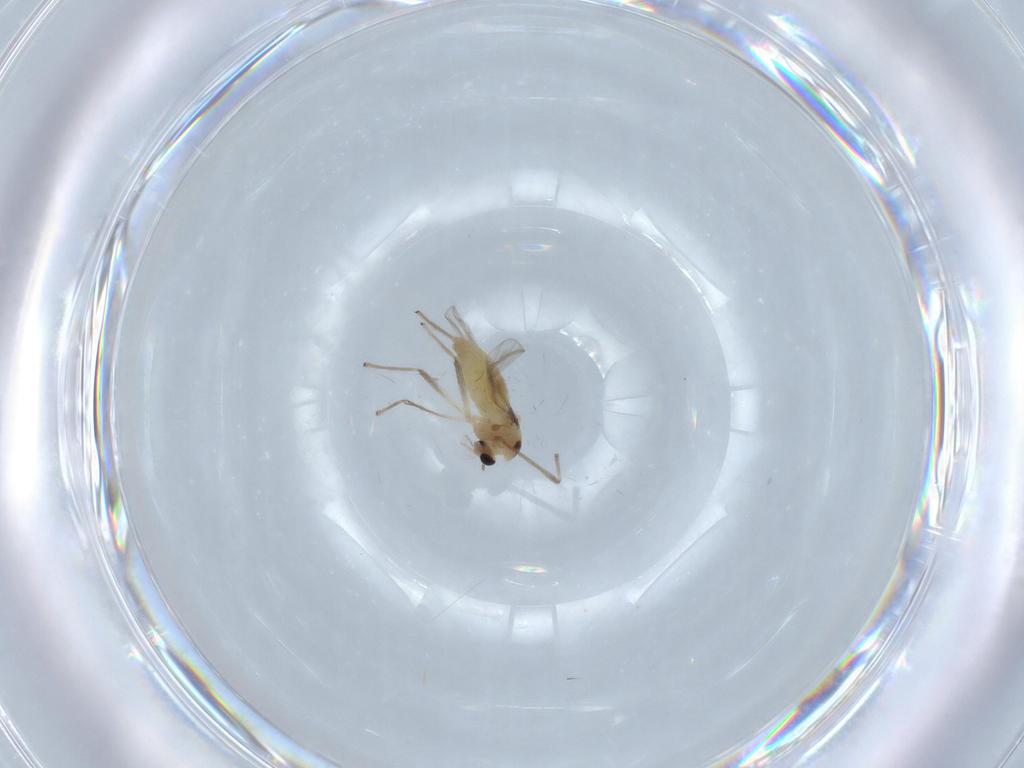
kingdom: Animalia
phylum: Arthropoda
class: Insecta
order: Diptera
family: Chironomidae
